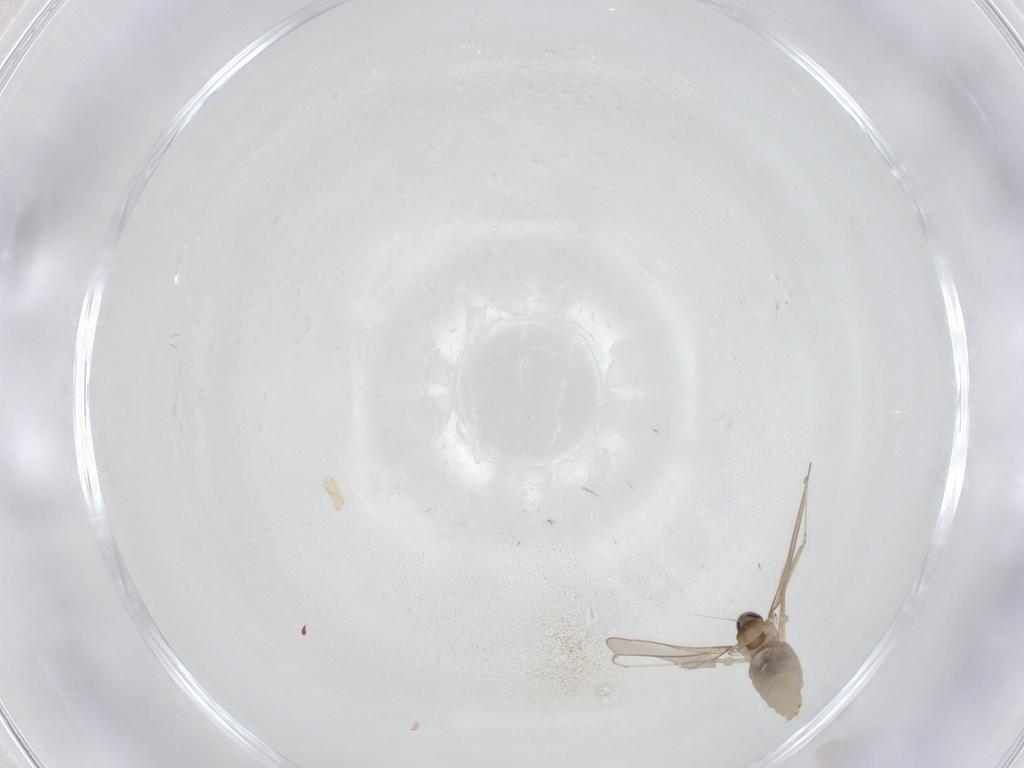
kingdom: Animalia
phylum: Arthropoda
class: Insecta
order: Diptera
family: Cecidomyiidae
